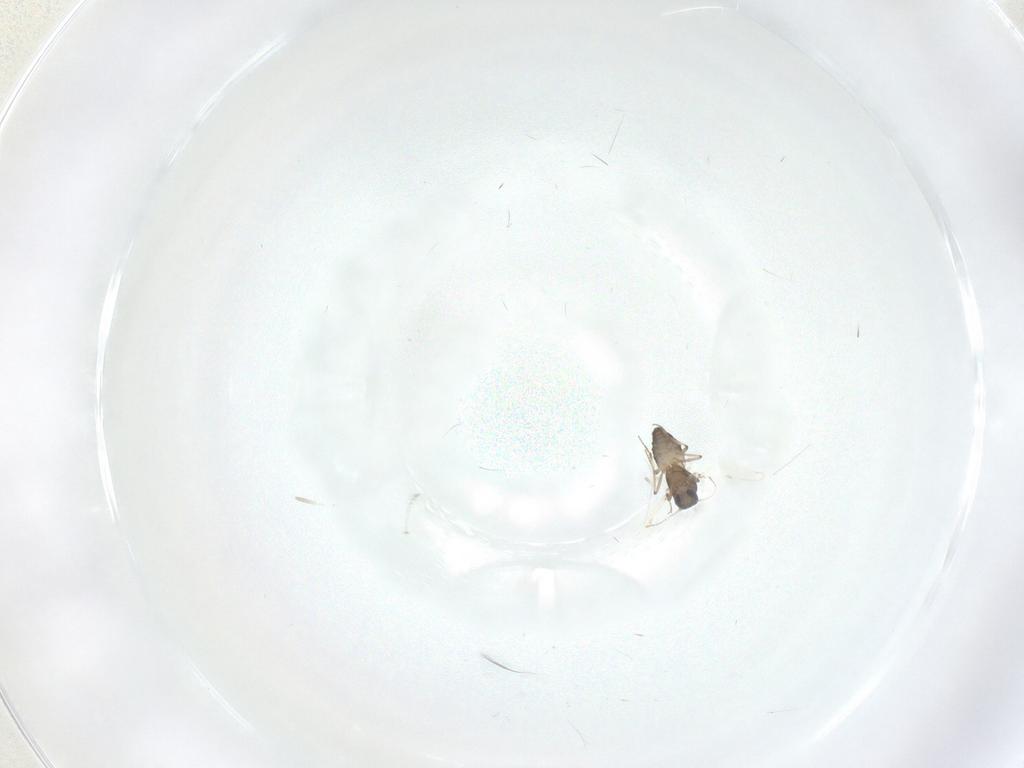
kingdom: Animalia
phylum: Arthropoda
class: Insecta
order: Diptera
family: Ceratopogonidae
